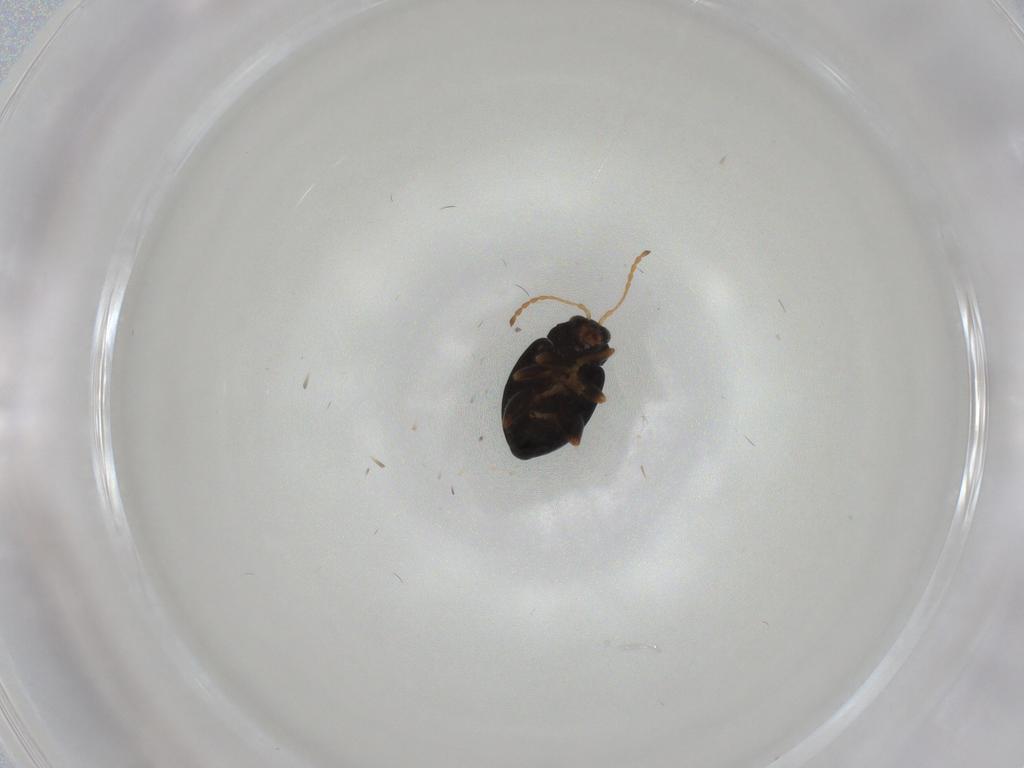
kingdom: Animalia
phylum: Arthropoda
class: Insecta
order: Coleoptera
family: Chrysomelidae
